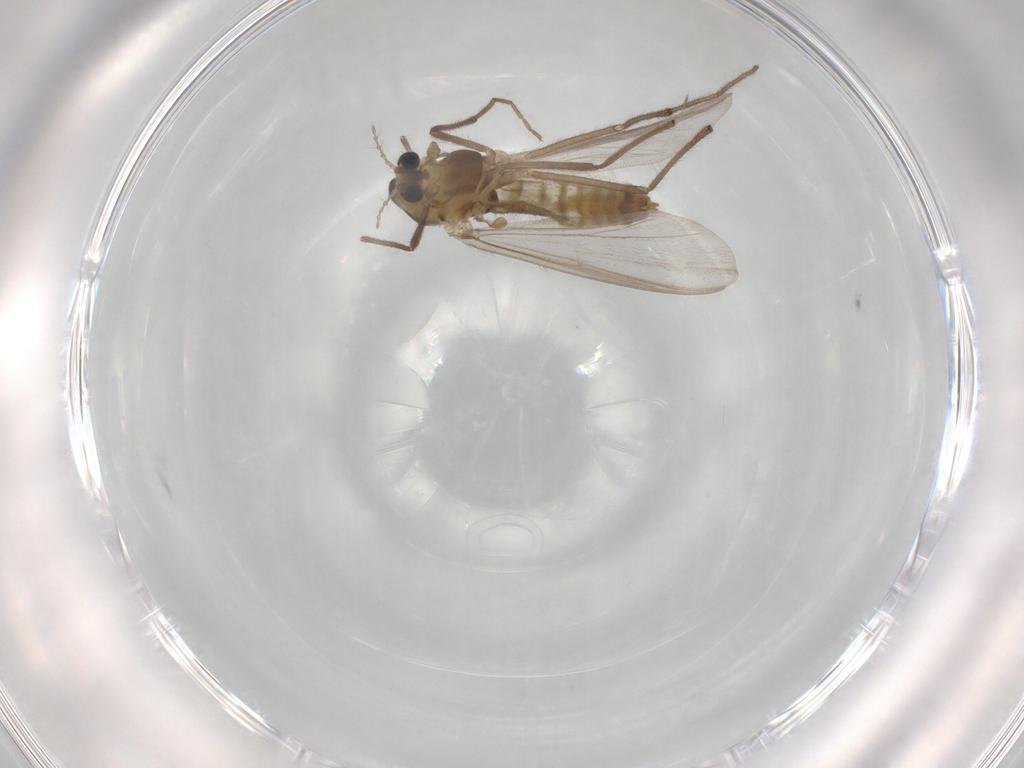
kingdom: Animalia
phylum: Arthropoda
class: Insecta
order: Diptera
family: Chironomidae
